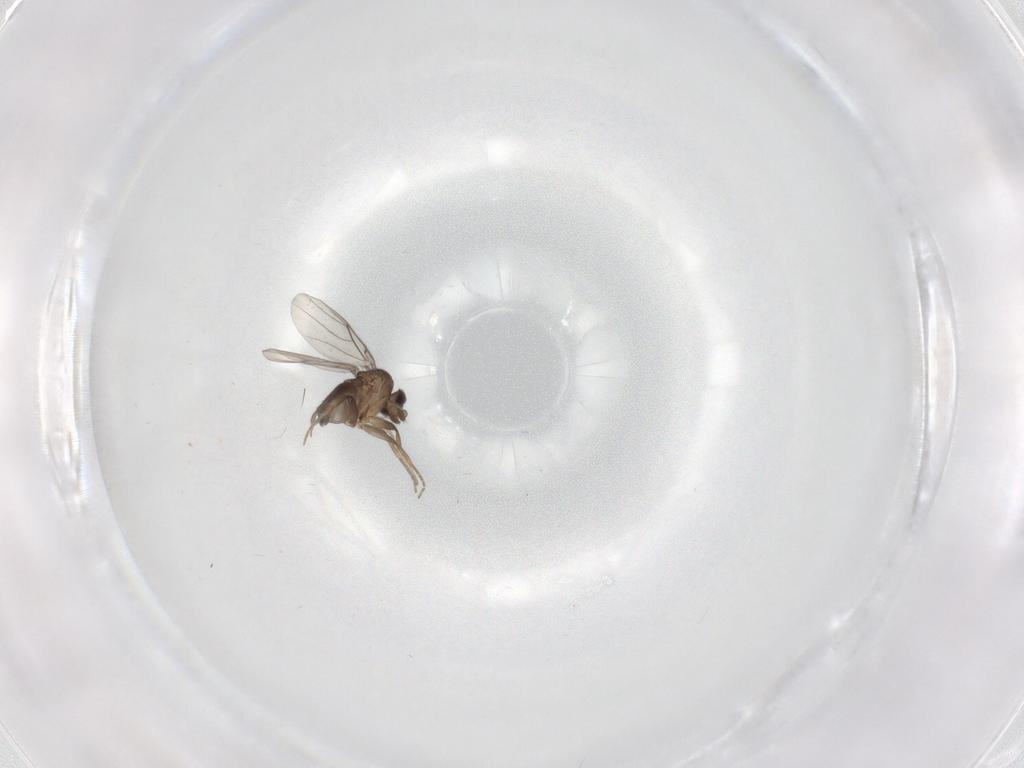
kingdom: Animalia
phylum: Arthropoda
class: Insecta
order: Diptera
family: Phoridae
